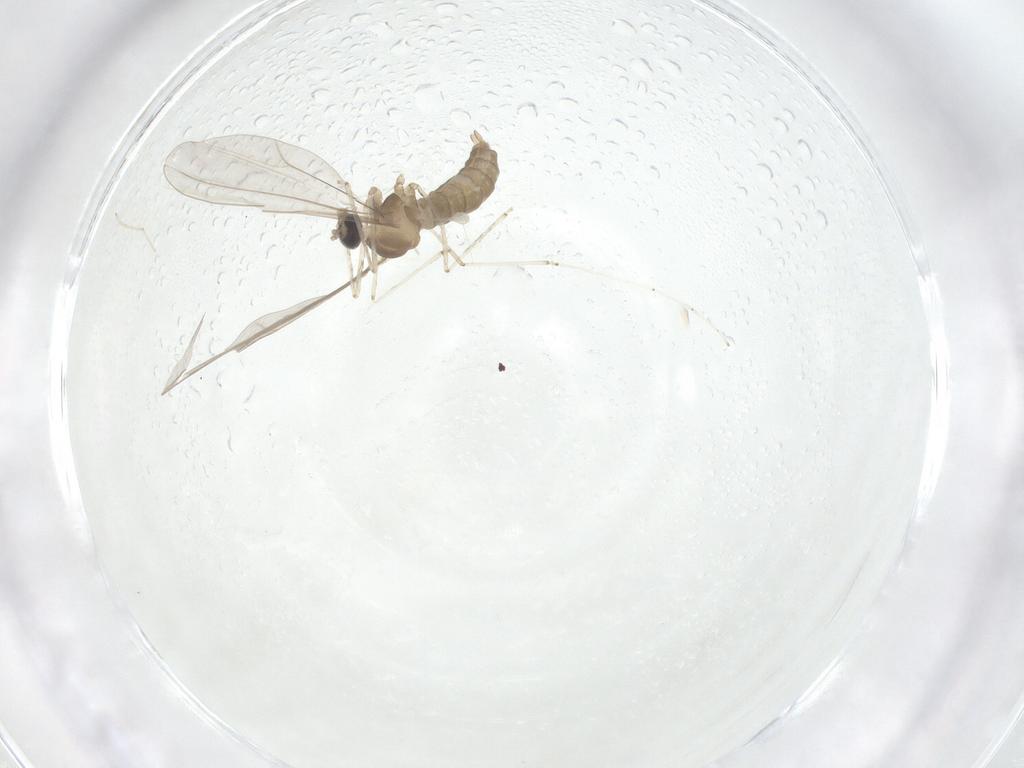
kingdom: Animalia
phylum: Arthropoda
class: Insecta
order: Diptera
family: Cecidomyiidae
